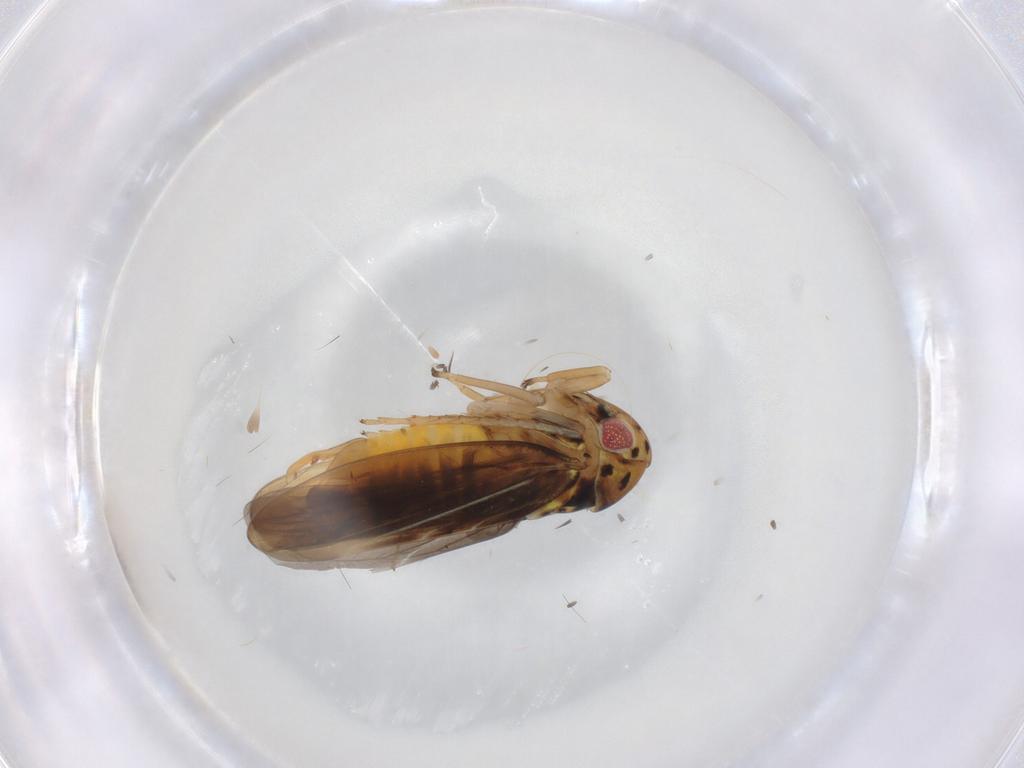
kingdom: Animalia
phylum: Arthropoda
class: Insecta
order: Hemiptera
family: Cicadellidae
